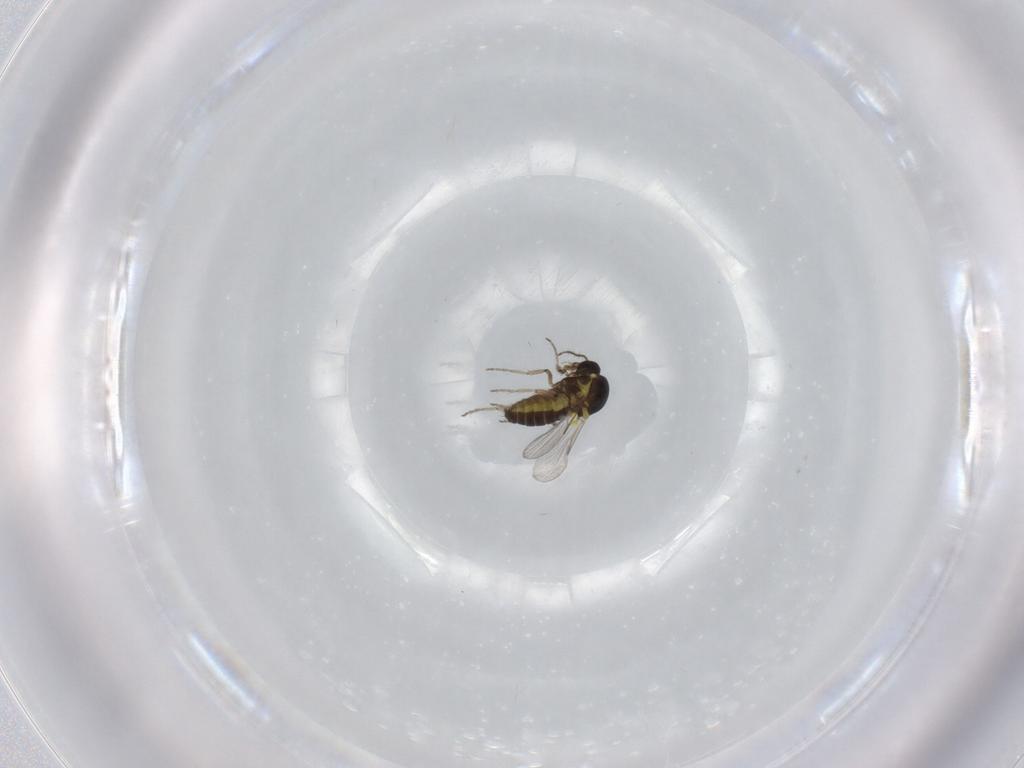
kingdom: Animalia
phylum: Arthropoda
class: Insecta
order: Diptera
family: Ceratopogonidae
